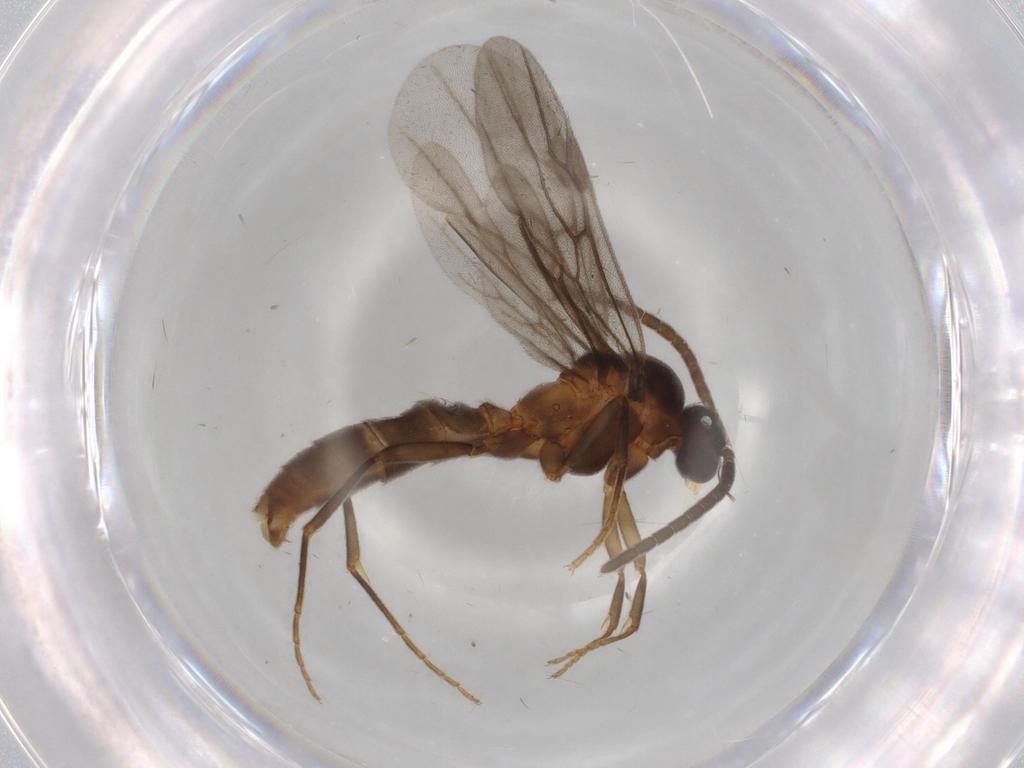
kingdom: Animalia
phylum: Arthropoda
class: Insecta
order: Hymenoptera
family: Formicidae
